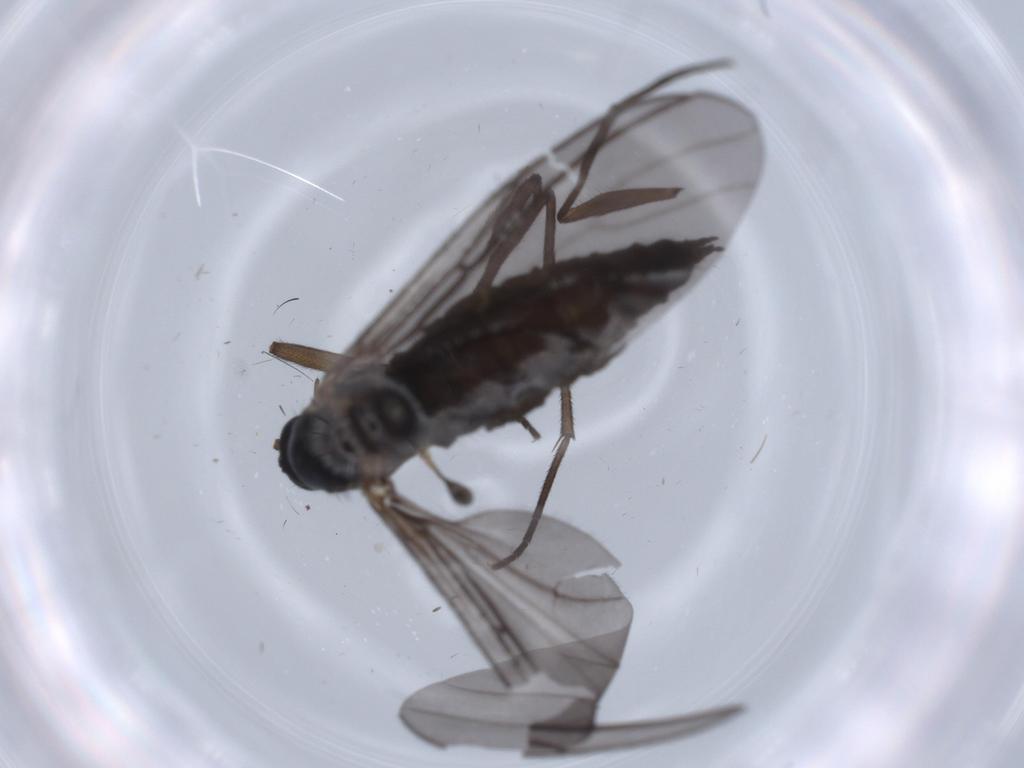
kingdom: Animalia
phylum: Arthropoda
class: Insecta
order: Diptera
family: Sciaridae
